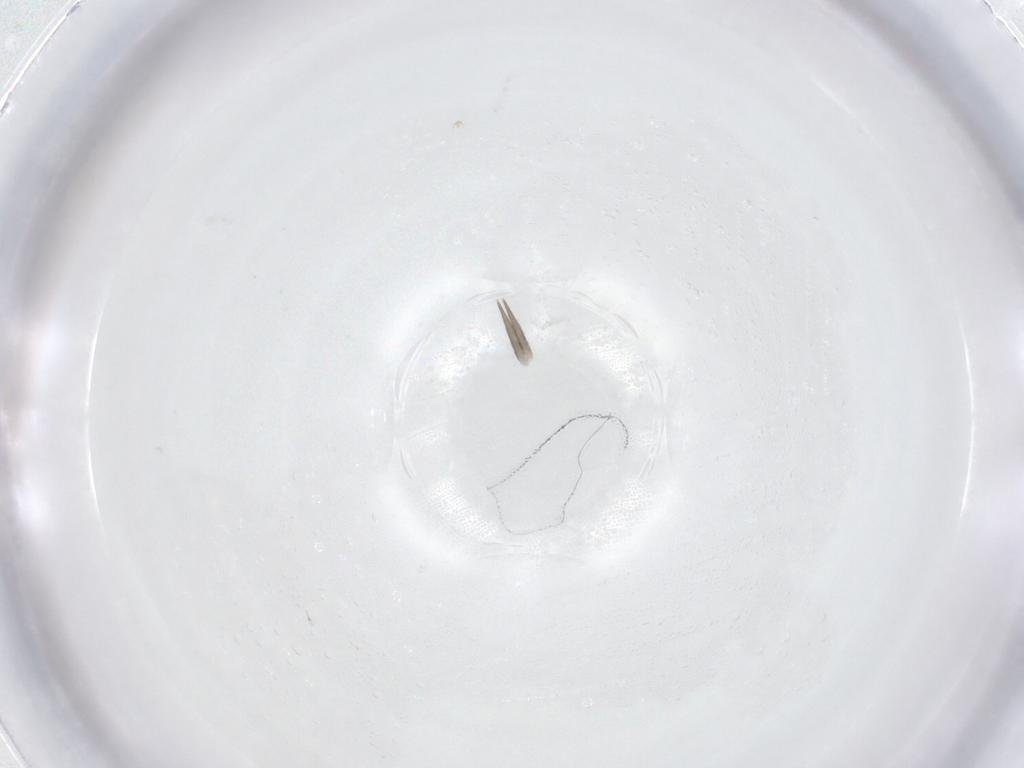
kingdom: Animalia
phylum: Arthropoda
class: Collembola
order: Entomobryomorpha
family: Entomobryidae
